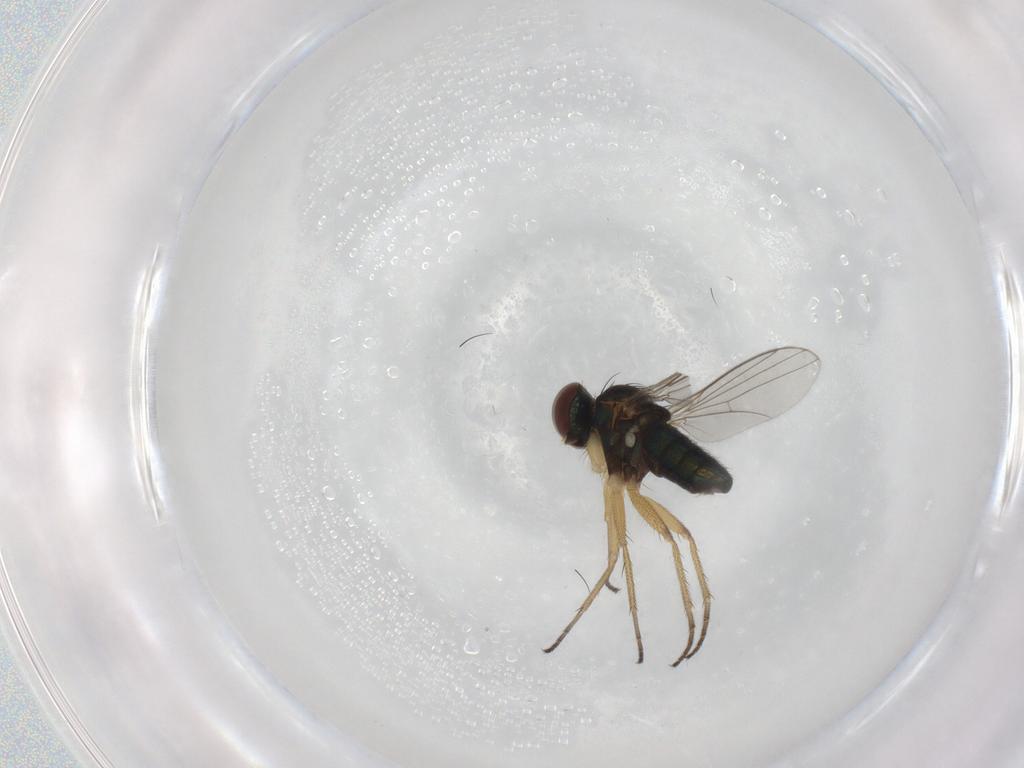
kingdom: Animalia
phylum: Arthropoda
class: Insecta
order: Diptera
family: Dolichopodidae
